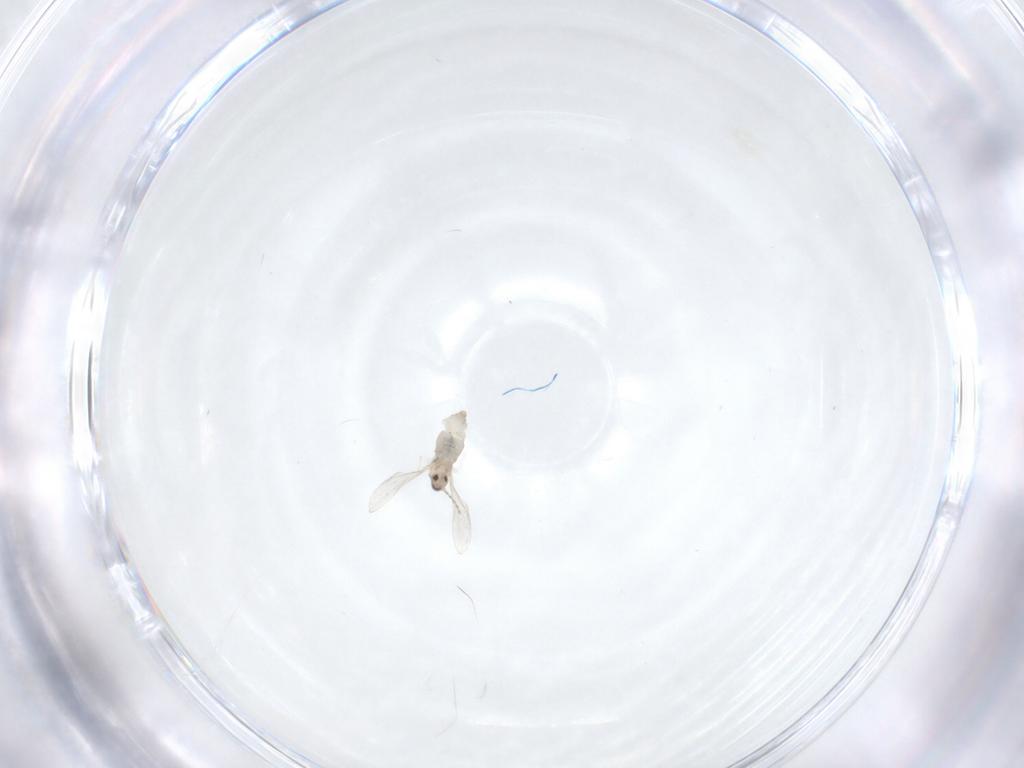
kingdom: Animalia
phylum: Arthropoda
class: Insecta
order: Diptera
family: Cecidomyiidae
